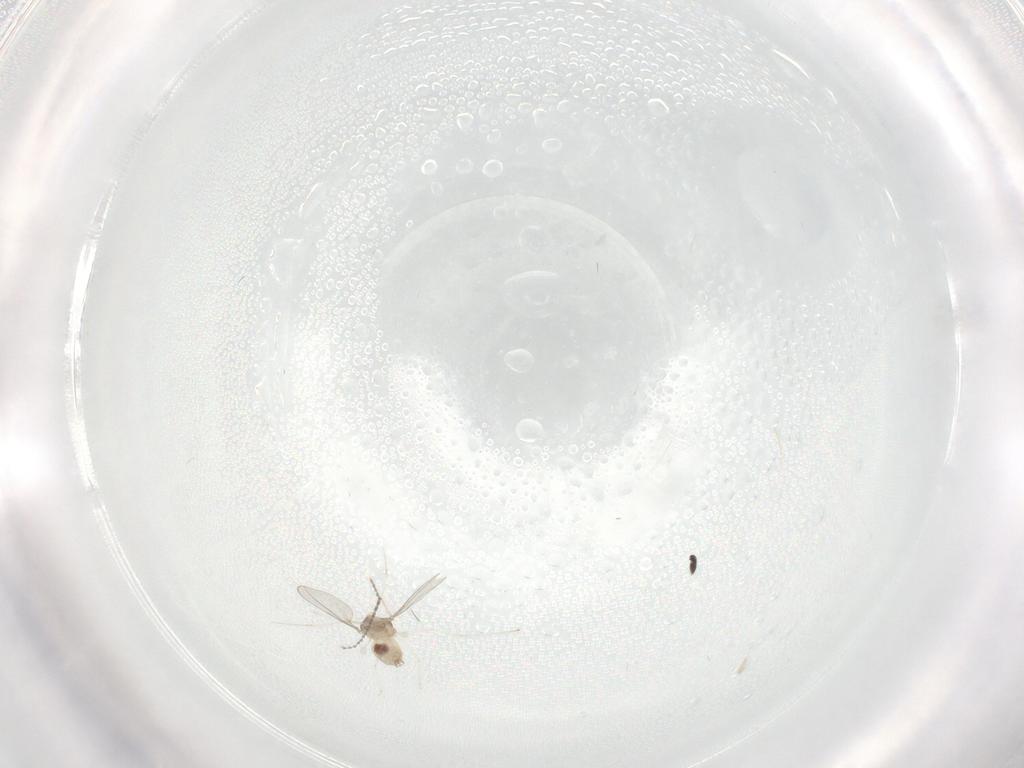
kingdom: Animalia
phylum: Arthropoda
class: Insecta
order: Diptera
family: Cecidomyiidae
